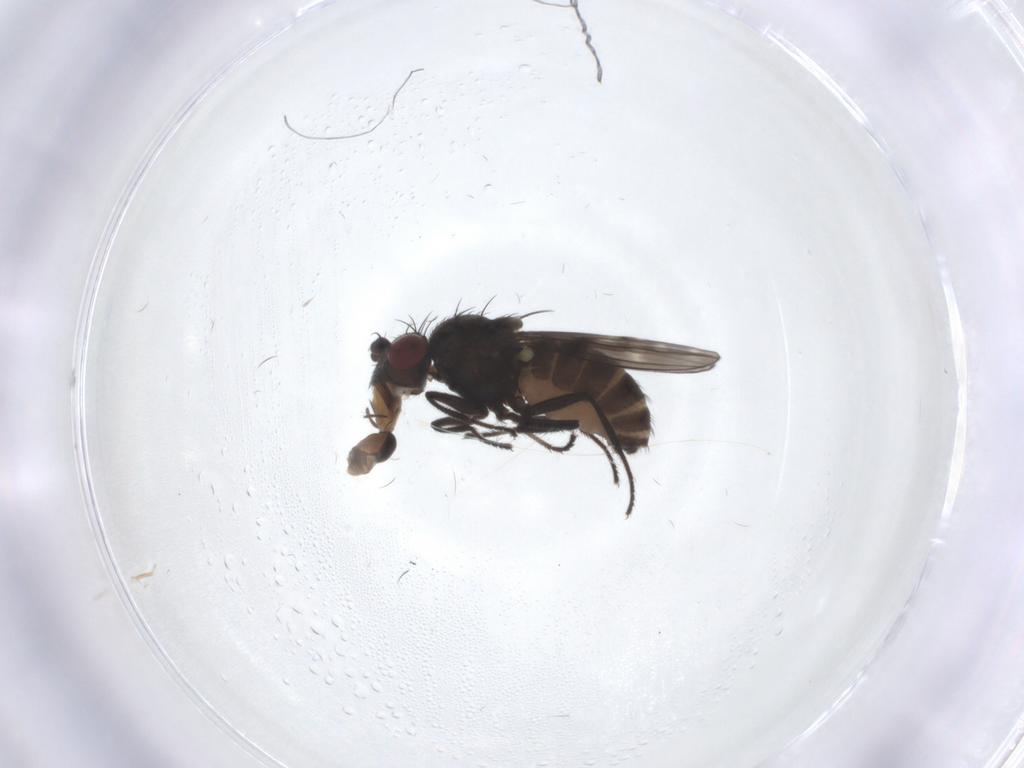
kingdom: Animalia
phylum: Arthropoda
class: Insecta
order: Diptera
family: Ephydridae
